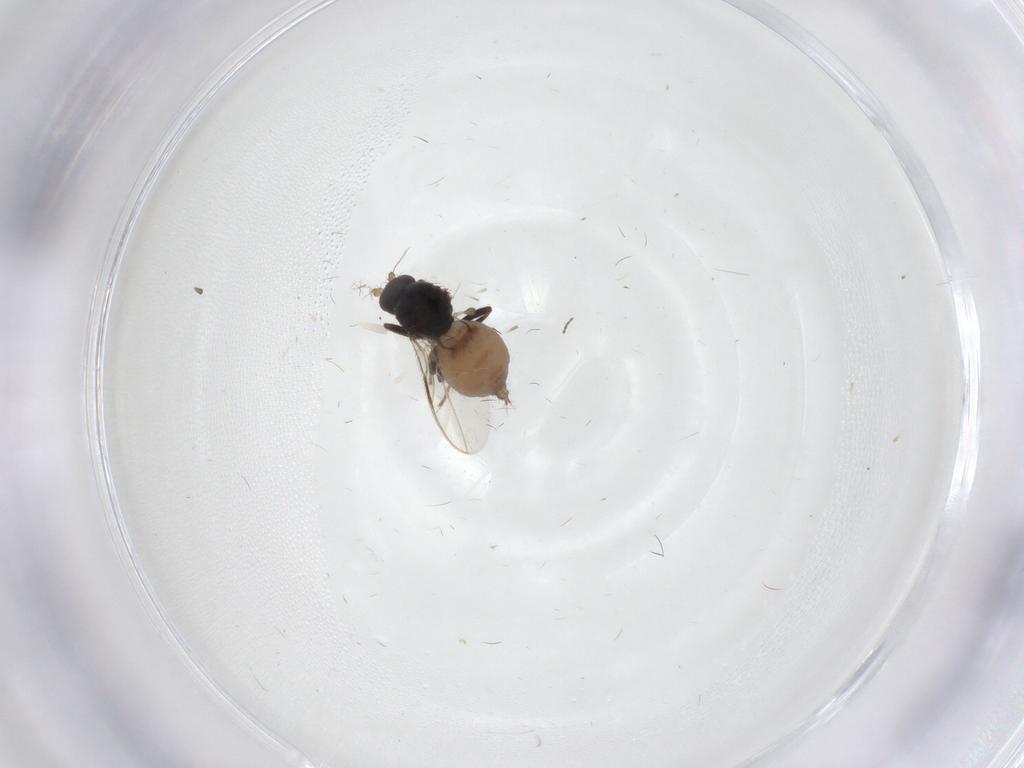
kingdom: Animalia
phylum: Arthropoda
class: Insecta
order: Diptera
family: Sphaeroceridae
